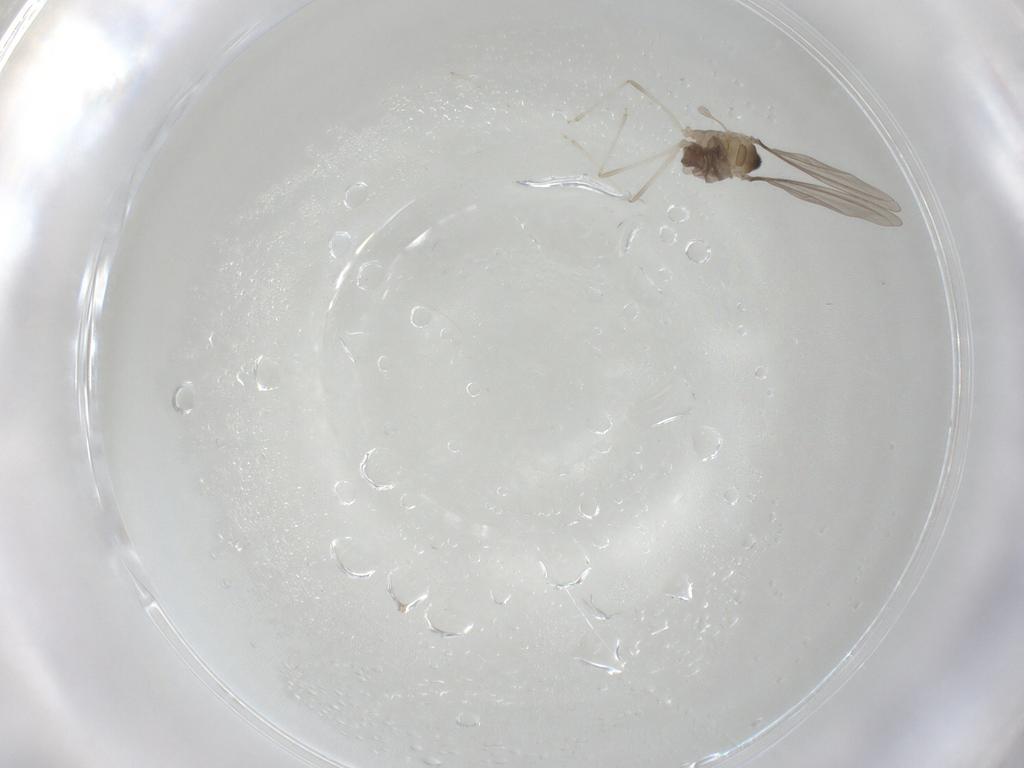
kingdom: Animalia
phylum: Arthropoda
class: Insecta
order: Diptera
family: Cecidomyiidae
